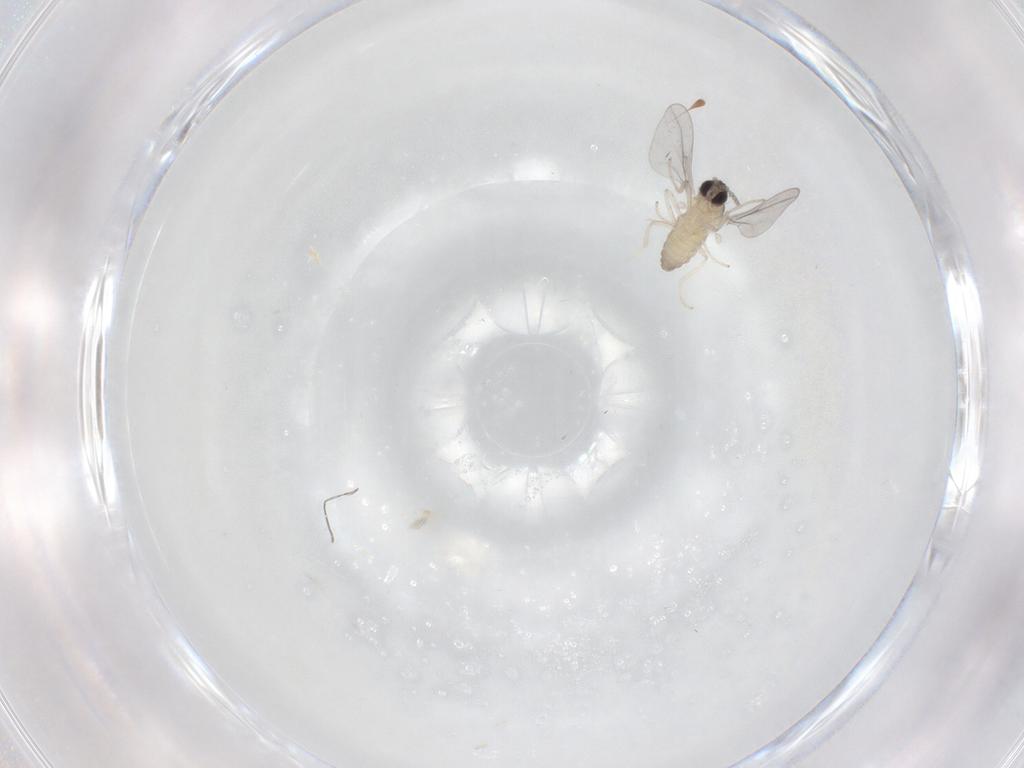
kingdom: Animalia
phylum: Arthropoda
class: Insecta
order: Diptera
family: Cecidomyiidae
